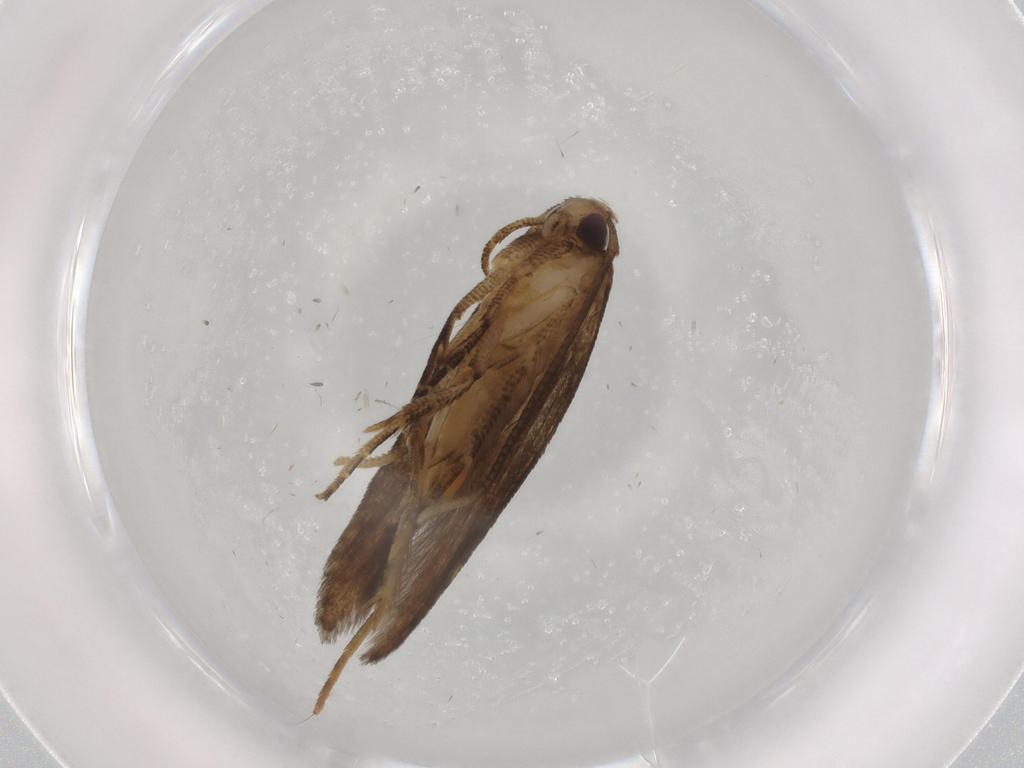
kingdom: Animalia
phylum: Arthropoda
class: Insecta
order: Lepidoptera
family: Cosmopterigidae
